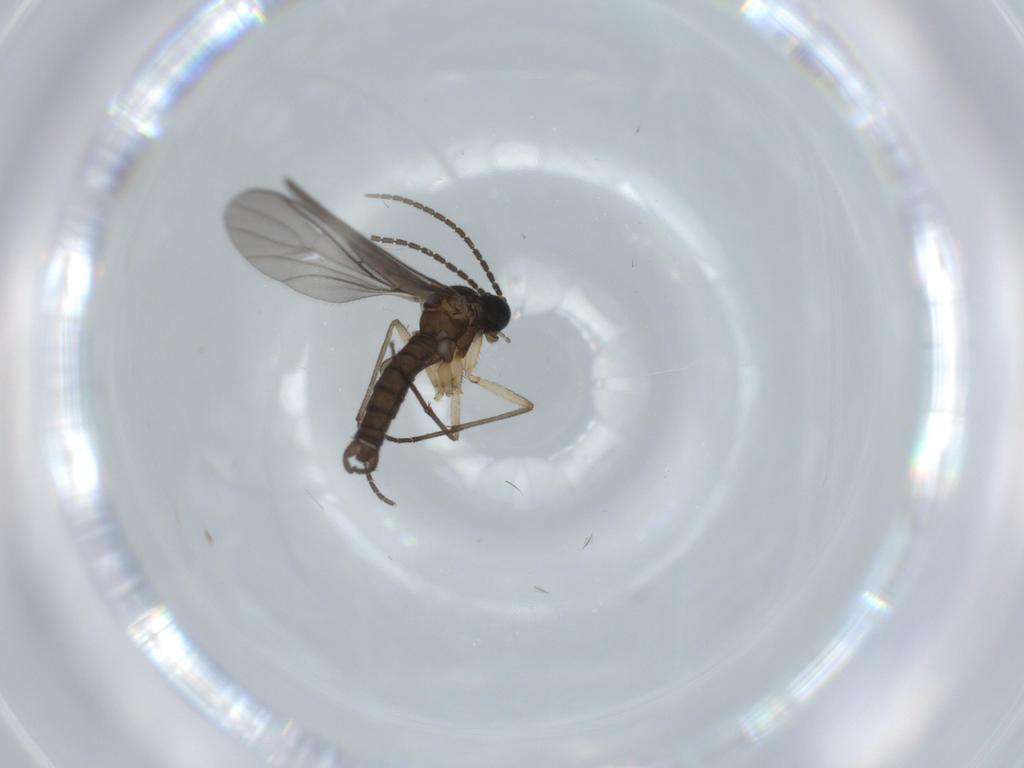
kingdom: Animalia
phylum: Arthropoda
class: Insecta
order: Diptera
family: Sciaridae
